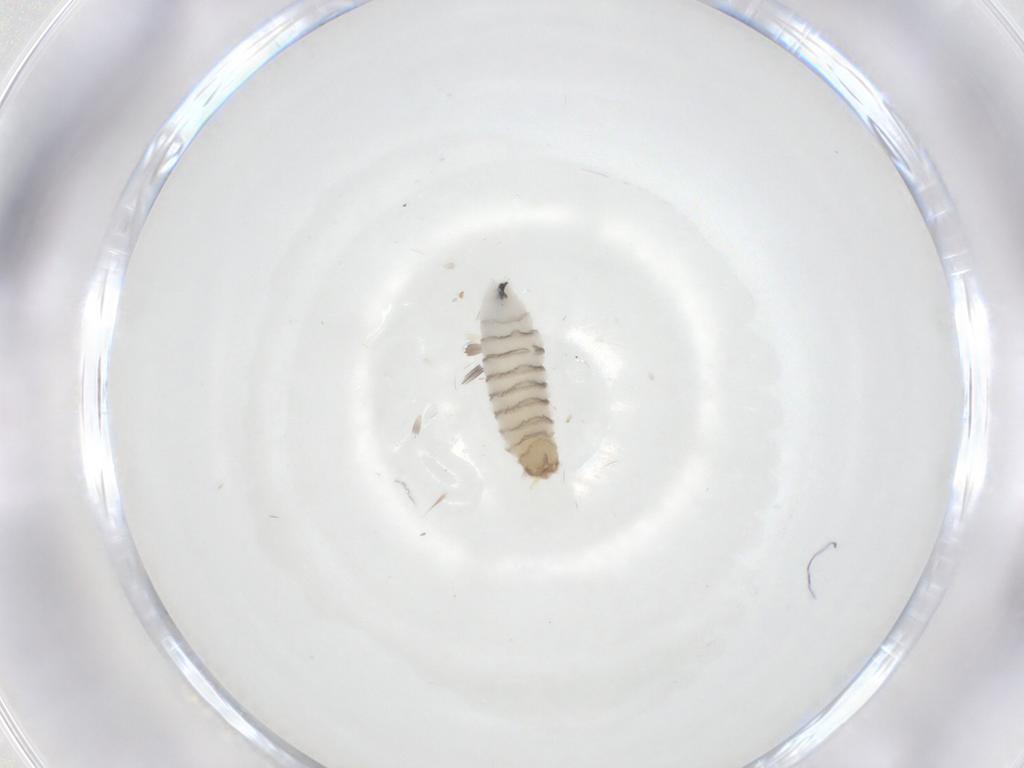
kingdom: Animalia
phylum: Arthropoda
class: Insecta
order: Diptera
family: Sarcophagidae
